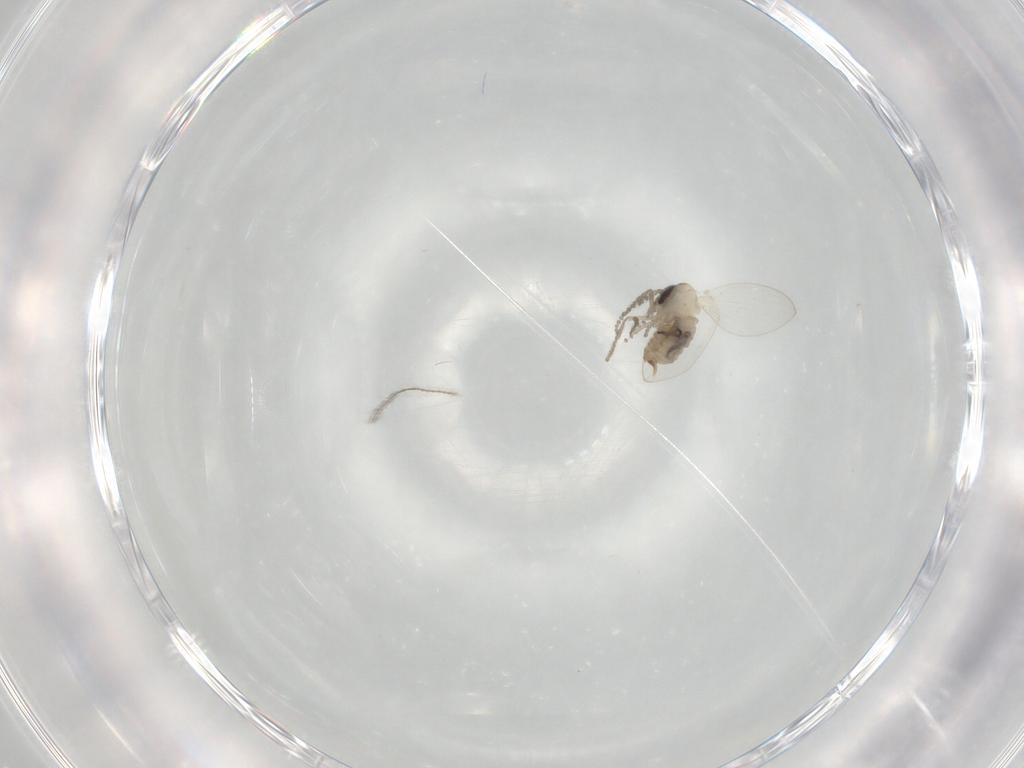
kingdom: Animalia
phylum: Arthropoda
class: Insecta
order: Diptera
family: Psychodidae
